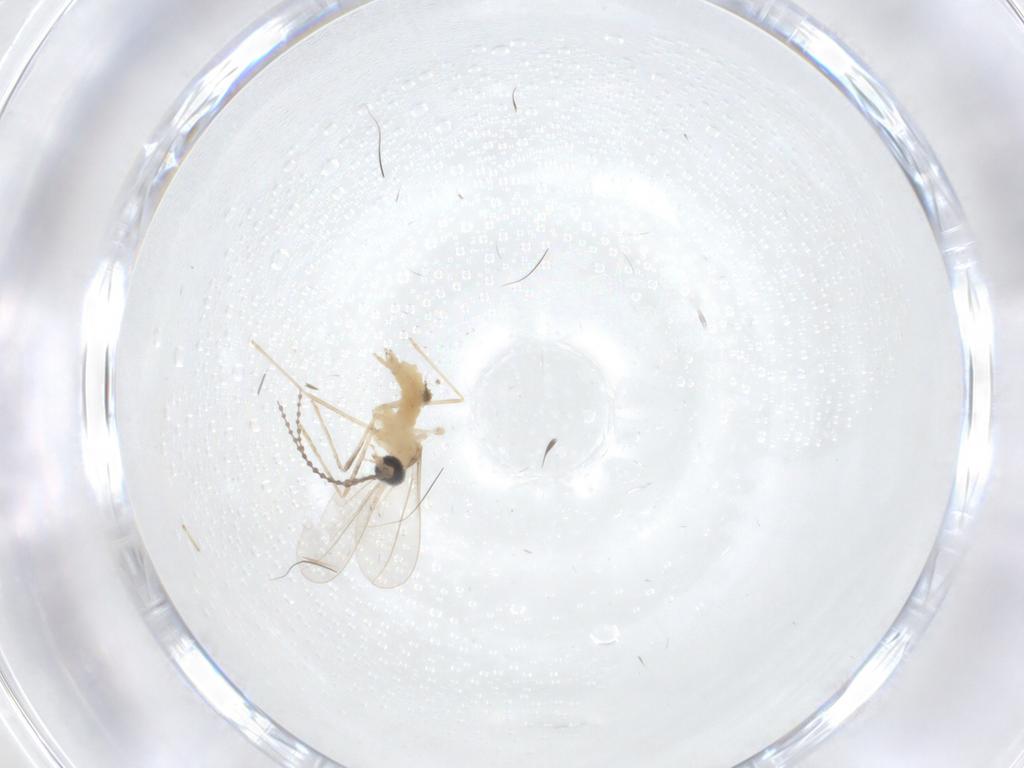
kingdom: Animalia
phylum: Arthropoda
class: Insecta
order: Diptera
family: Cecidomyiidae
